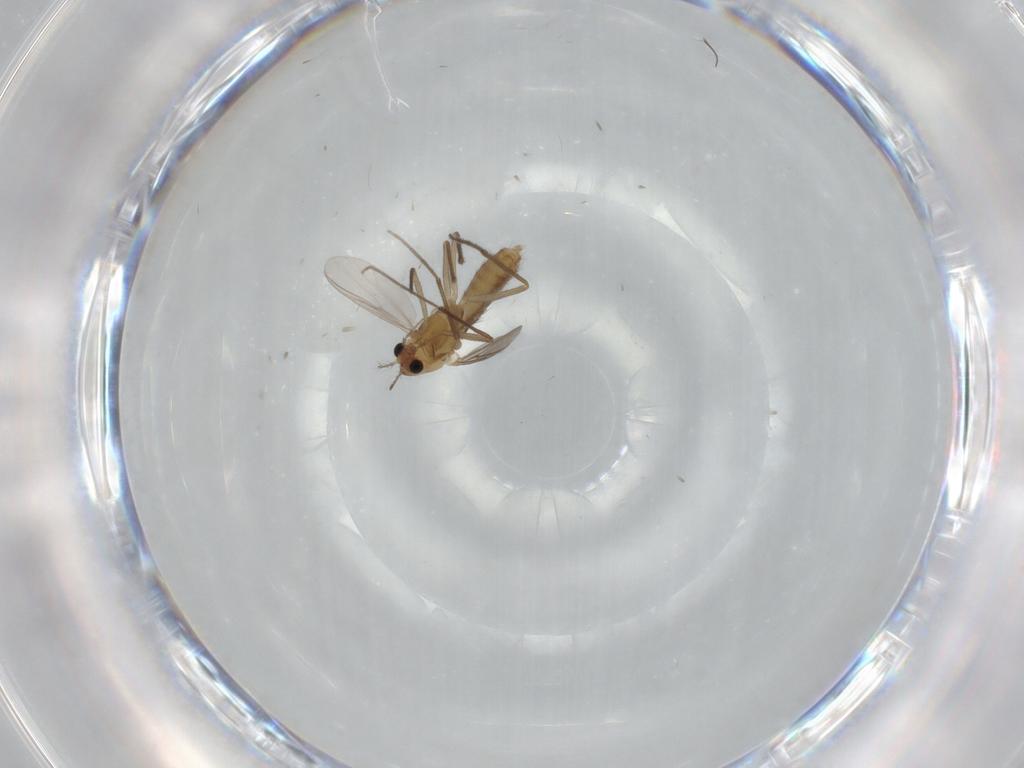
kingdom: Animalia
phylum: Arthropoda
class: Insecta
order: Diptera
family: Chironomidae
